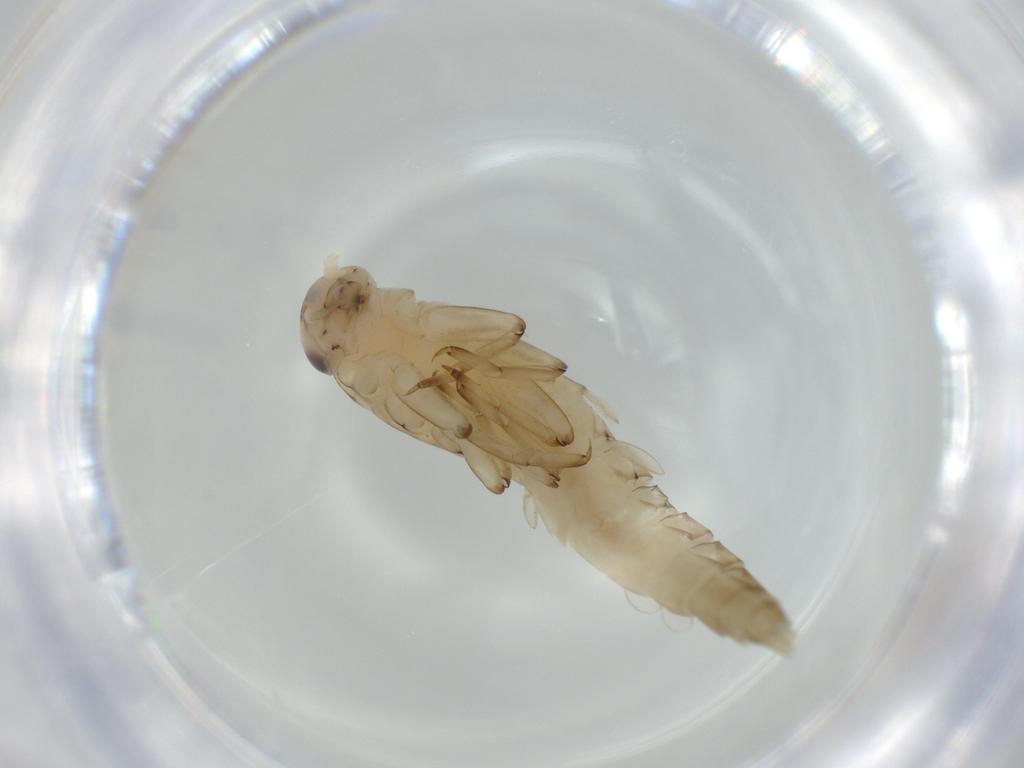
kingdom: Animalia
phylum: Arthropoda
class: Insecta
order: Ephemeroptera
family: Baetidae
